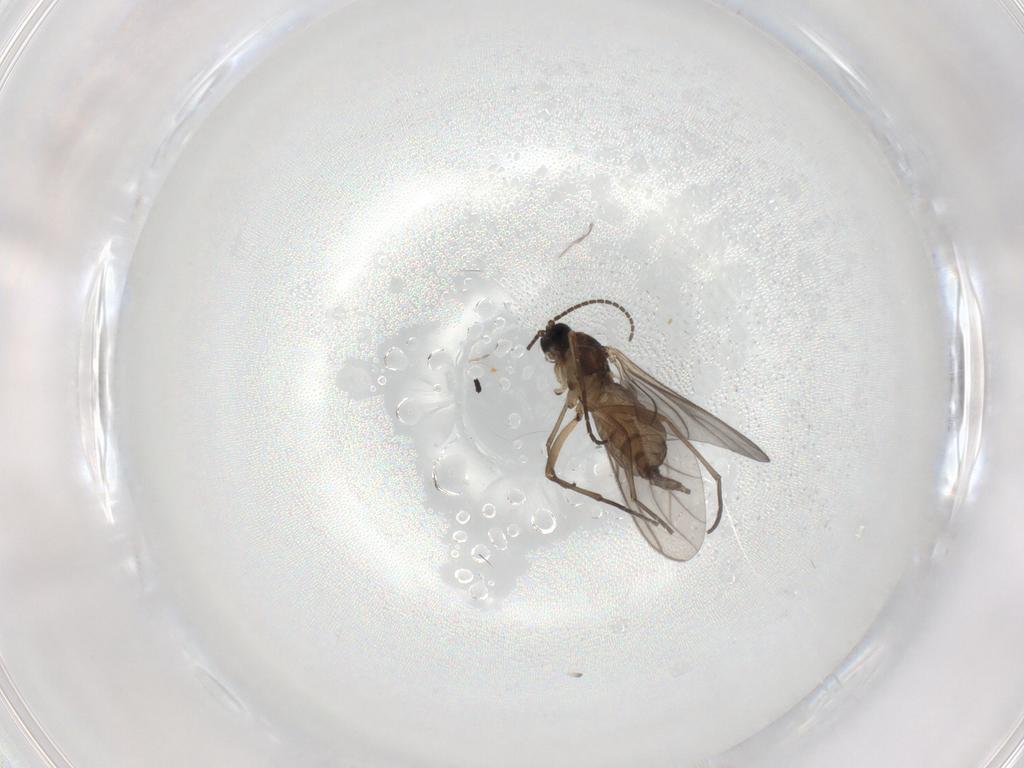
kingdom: Animalia
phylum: Arthropoda
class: Insecta
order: Diptera
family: Sciaridae
